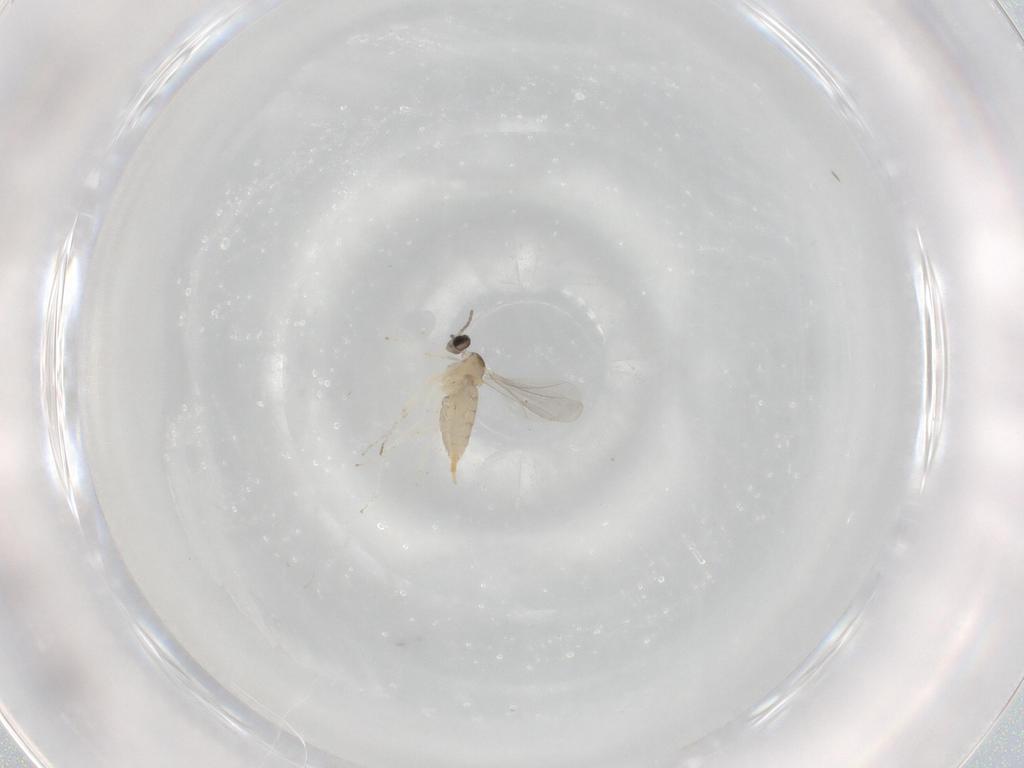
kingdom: Animalia
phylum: Arthropoda
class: Insecta
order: Diptera
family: Cecidomyiidae
